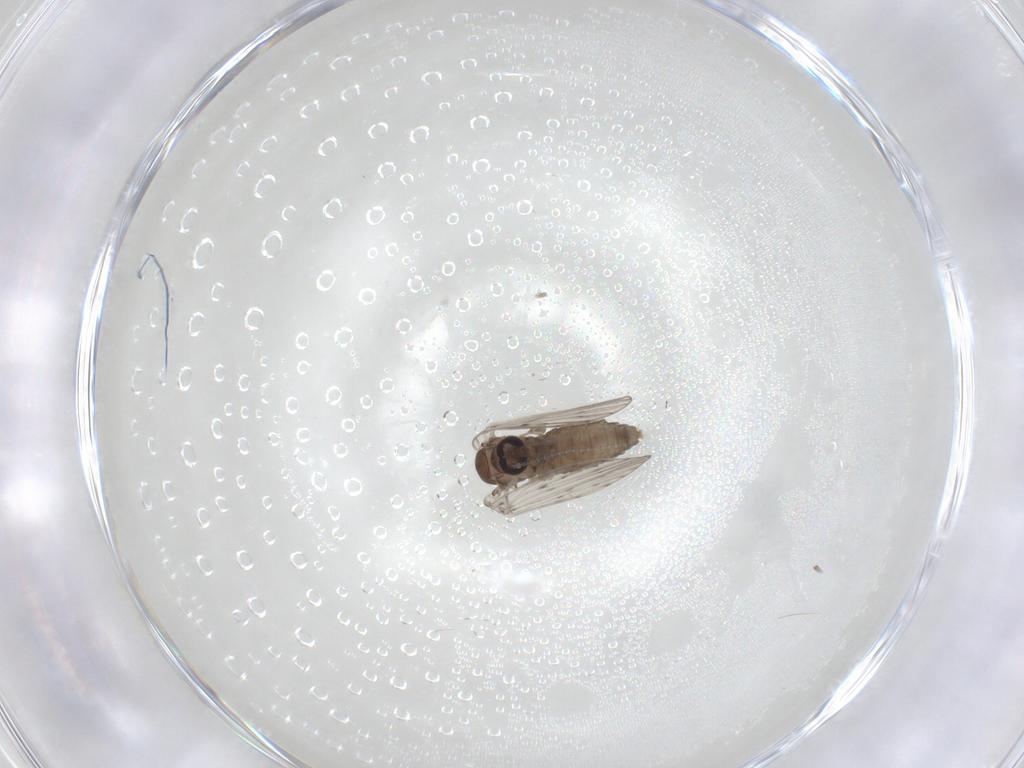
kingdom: Animalia
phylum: Arthropoda
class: Insecta
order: Diptera
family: Psychodidae
